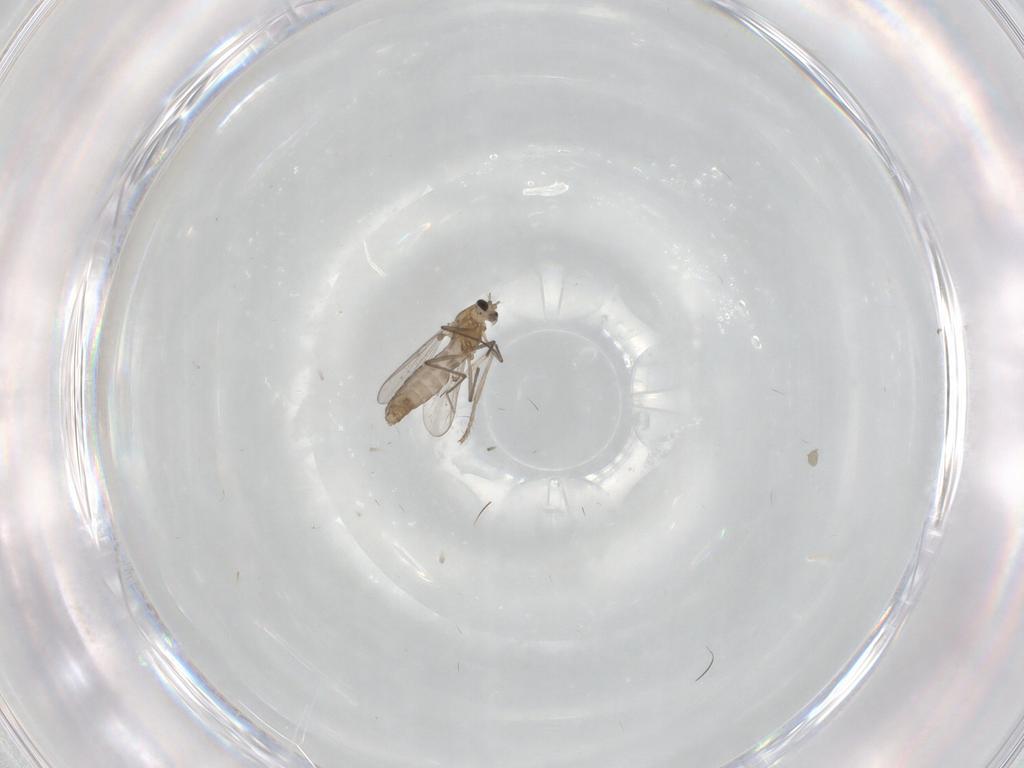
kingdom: Animalia
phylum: Arthropoda
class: Insecta
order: Diptera
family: Chironomidae
